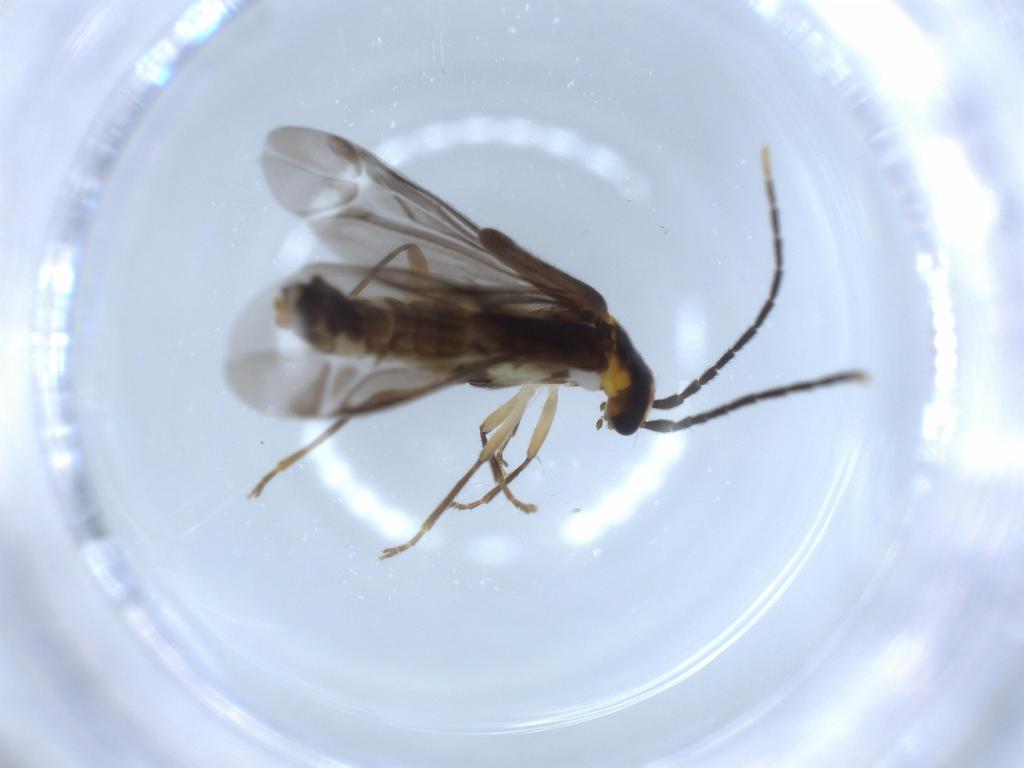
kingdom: Animalia
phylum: Arthropoda
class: Insecta
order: Coleoptera
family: Cantharidae
